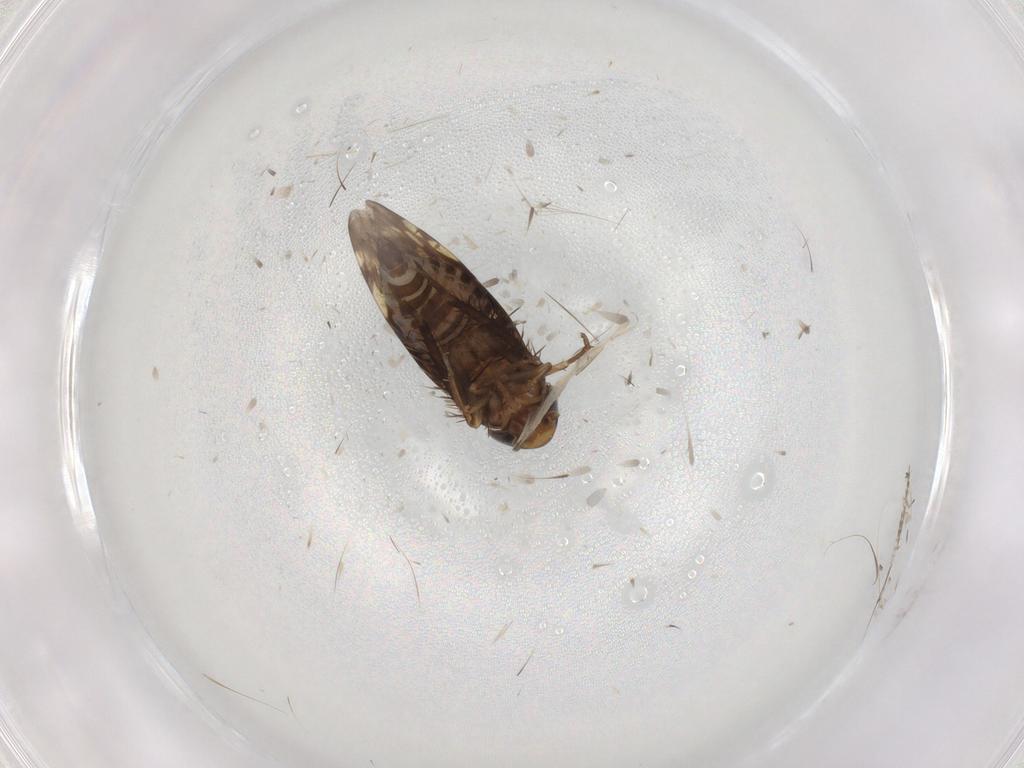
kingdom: Animalia
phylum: Arthropoda
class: Insecta
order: Hemiptera
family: Cicadellidae
